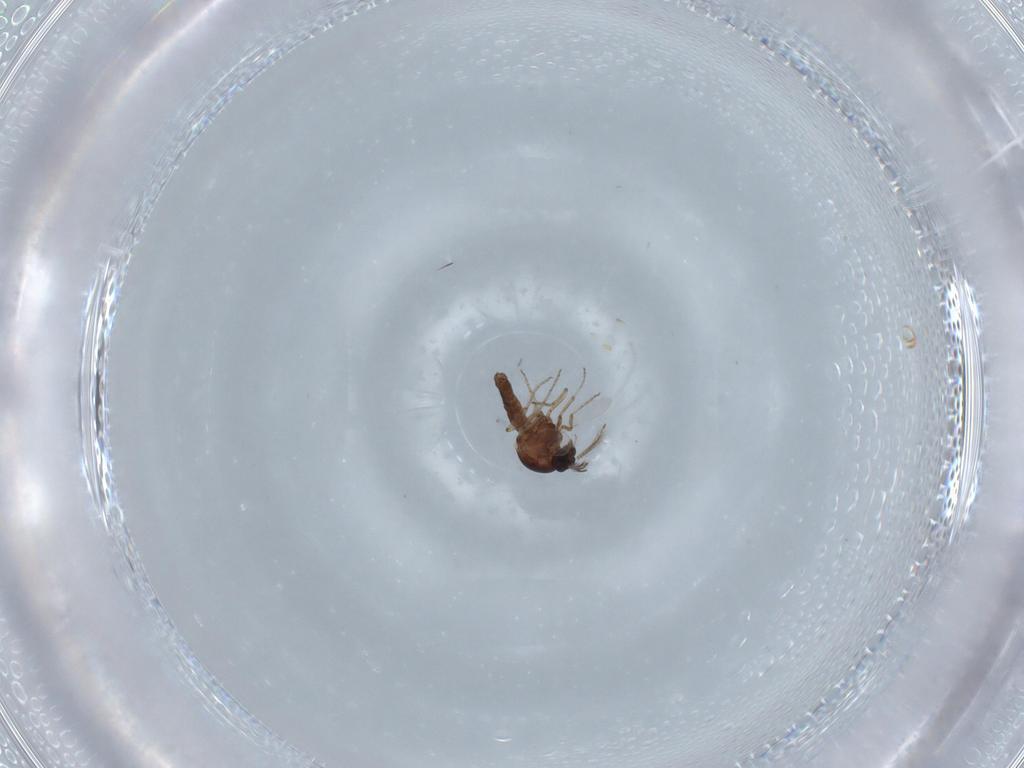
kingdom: Animalia
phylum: Arthropoda
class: Insecta
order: Diptera
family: Ceratopogonidae
